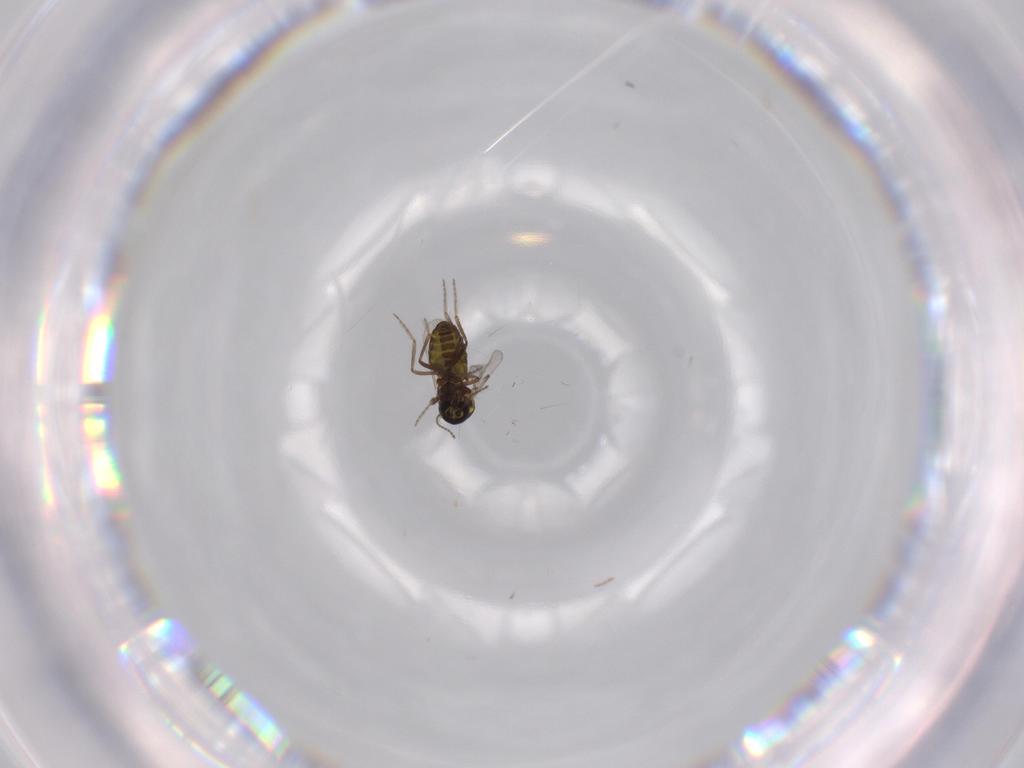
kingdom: Animalia
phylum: Arthropoda
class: Insecta
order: Diptera
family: Ceratopogonidae
